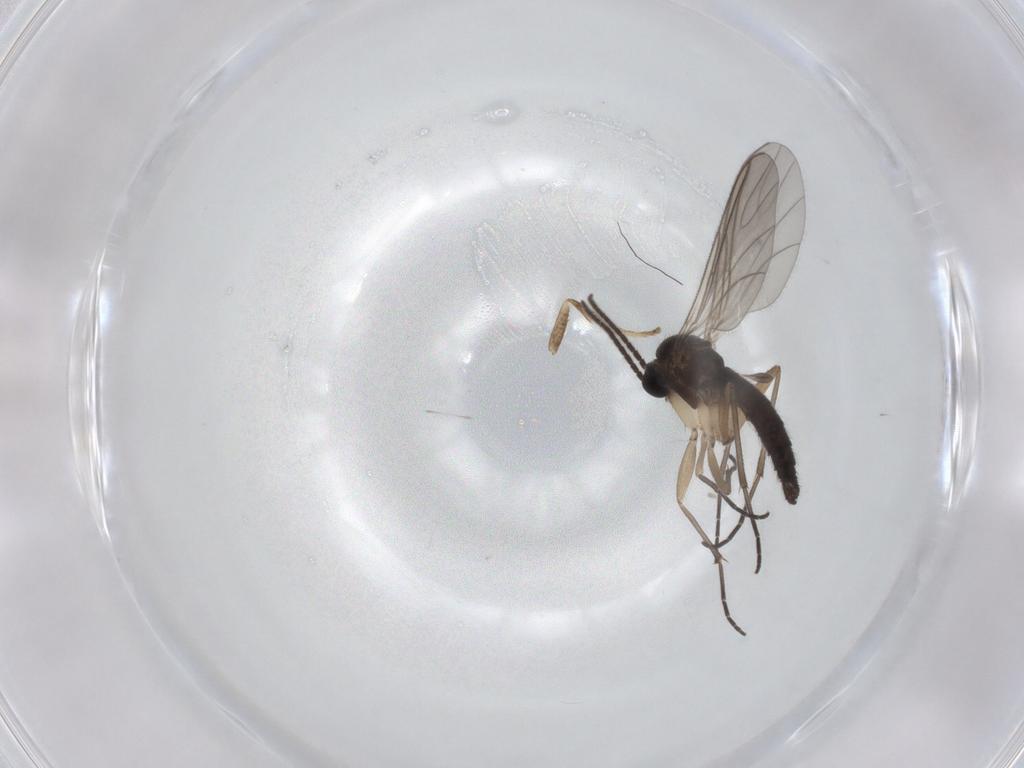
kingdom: Animalia
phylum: Arthropoda
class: Insecta
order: Diptera
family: Sciaridae
